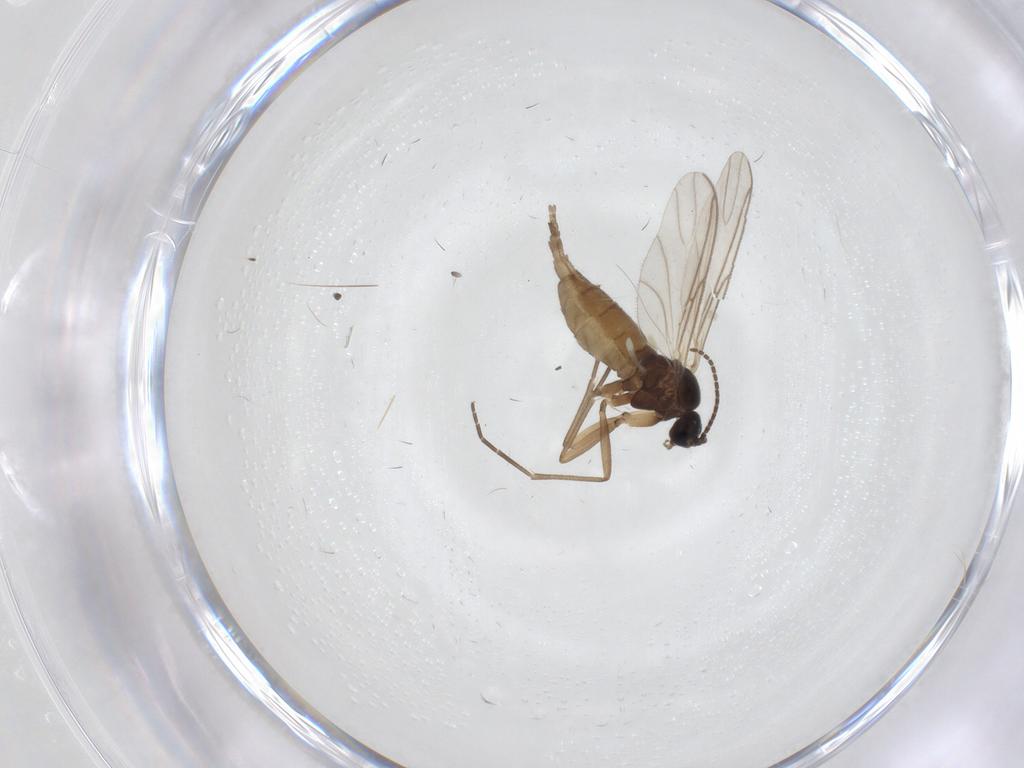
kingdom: Animalia
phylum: Arthropoda
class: Insecta
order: Diptera
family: Sciaridae
